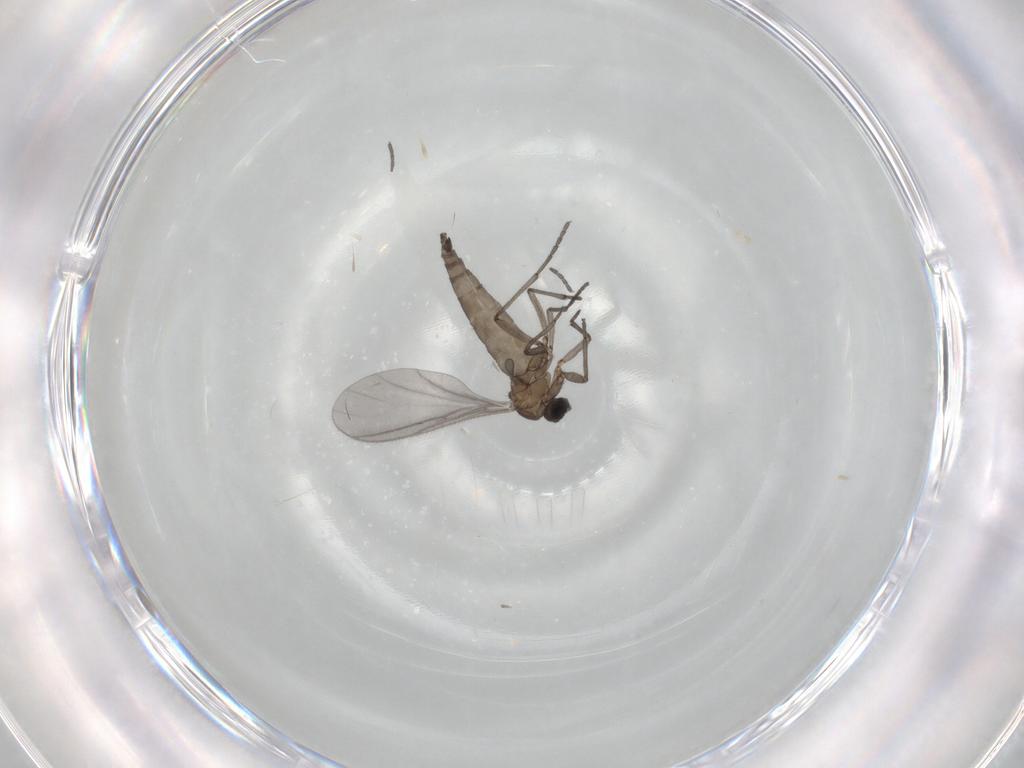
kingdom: Animalia
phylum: Arthropoda
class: Insecta
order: Diptera
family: Sciaridae
